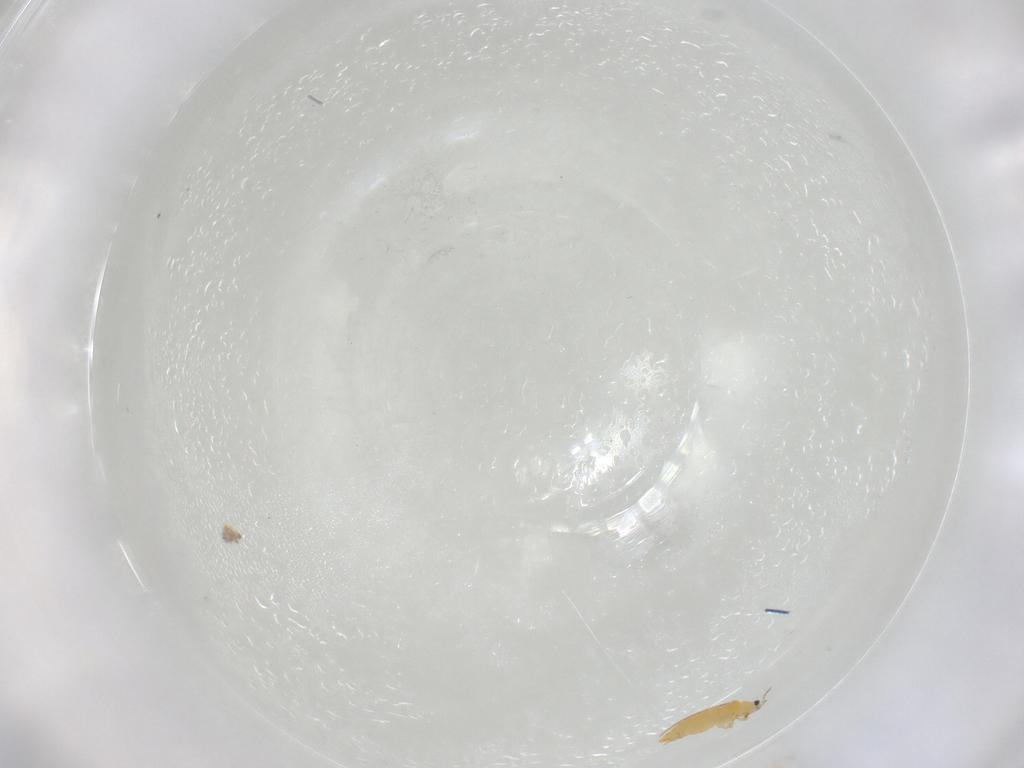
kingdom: Animalia
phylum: Arthropoda
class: Insecta
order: Thysanoptera
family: Thripidae
